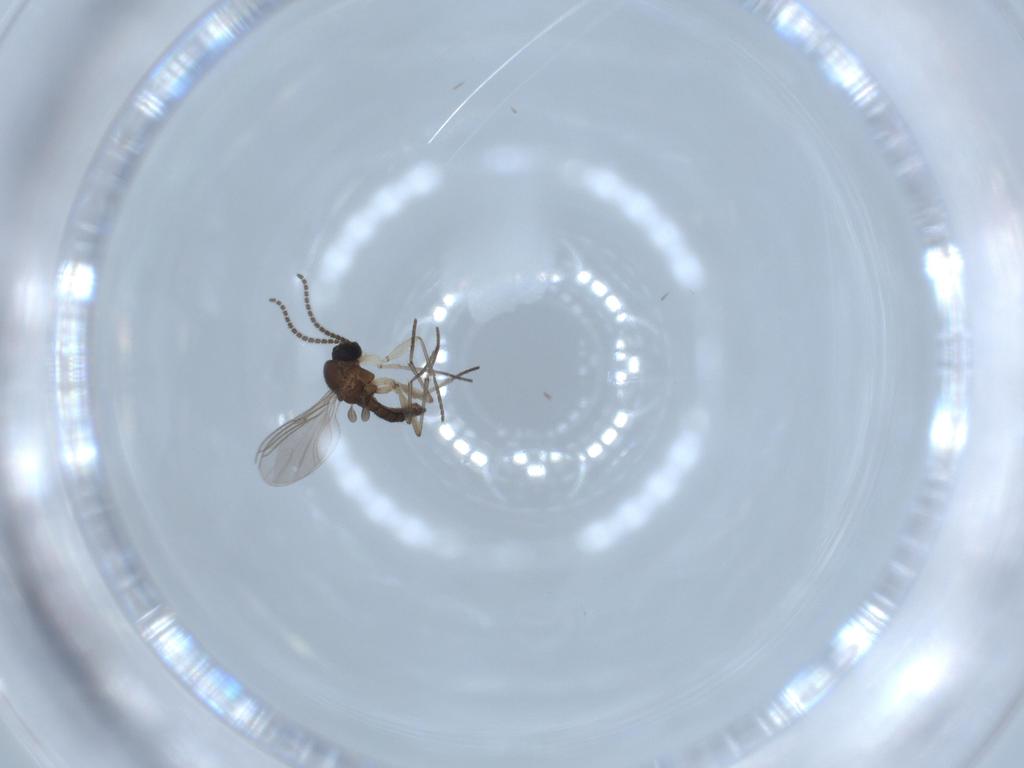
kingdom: Animalia
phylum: Arthropoda
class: Insecta
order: Diptera
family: Sciaridae
